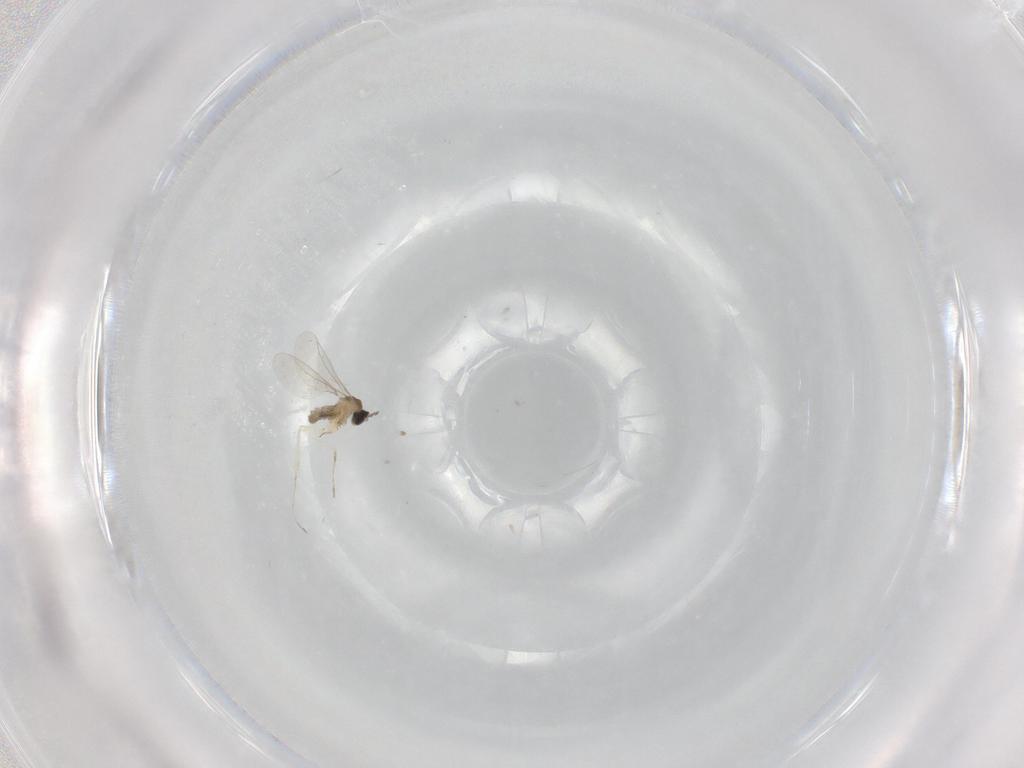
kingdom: Animalia
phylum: Arthropoda
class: Insecta
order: Diptera
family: Cecidomyiidae
